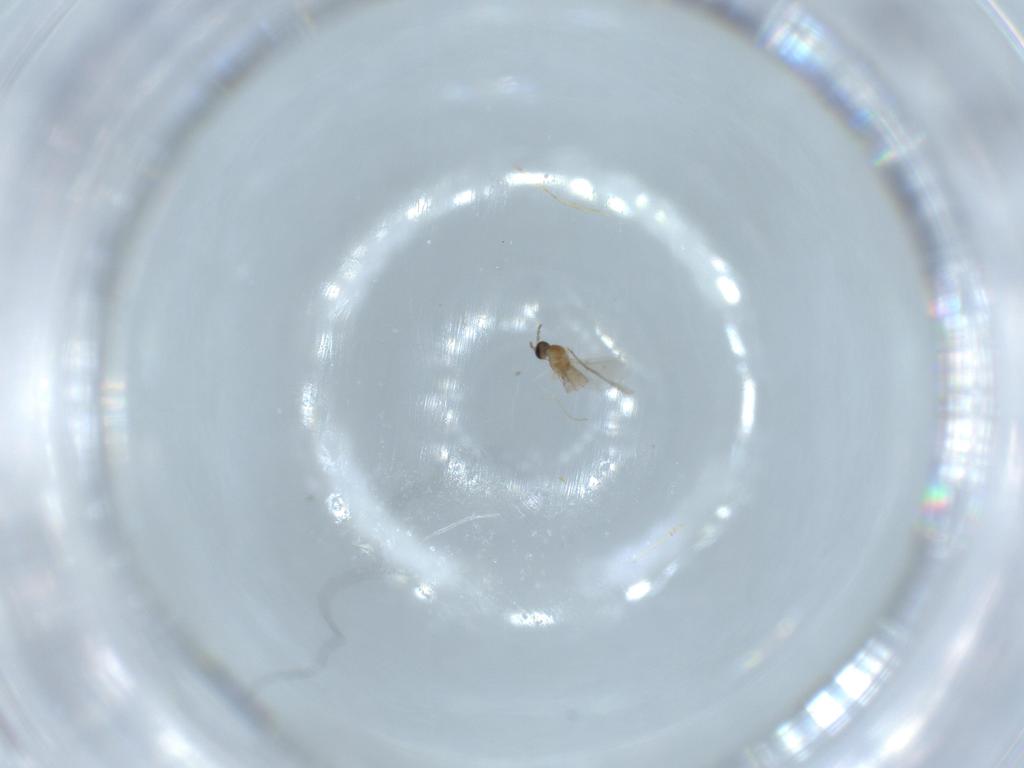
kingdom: Animalia
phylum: Arthropoda
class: Insecta
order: Diptera
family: Cecidomyiidae
